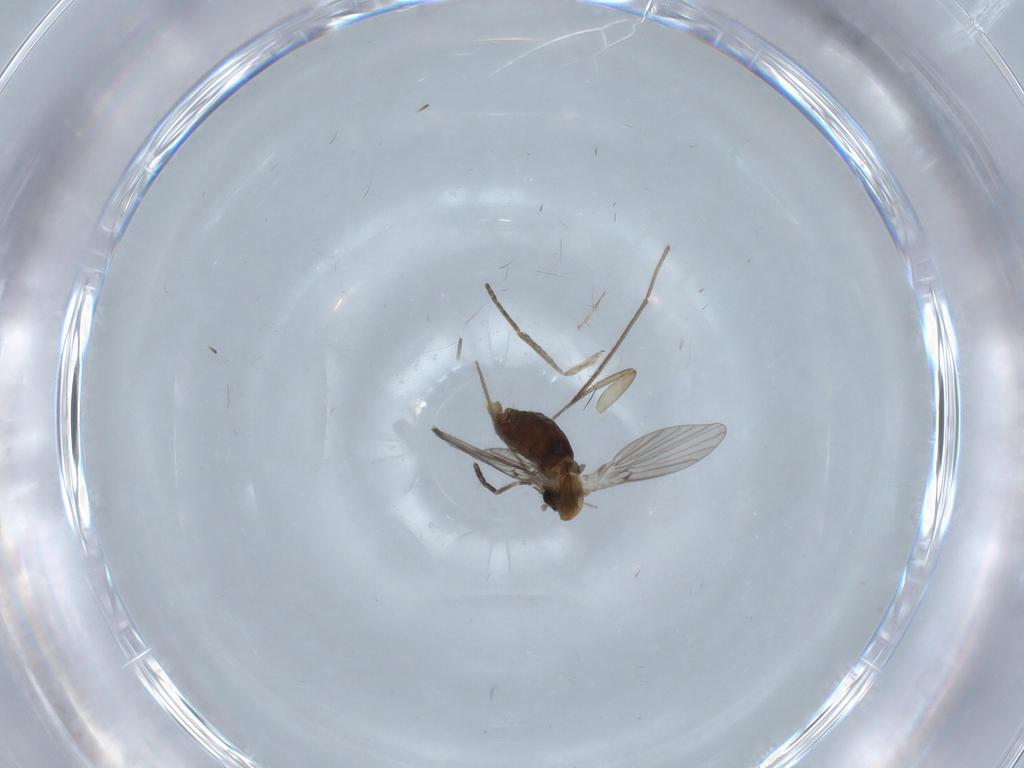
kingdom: Animalia
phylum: Arthropoda
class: Insecta
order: Diptera
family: Phoridae
